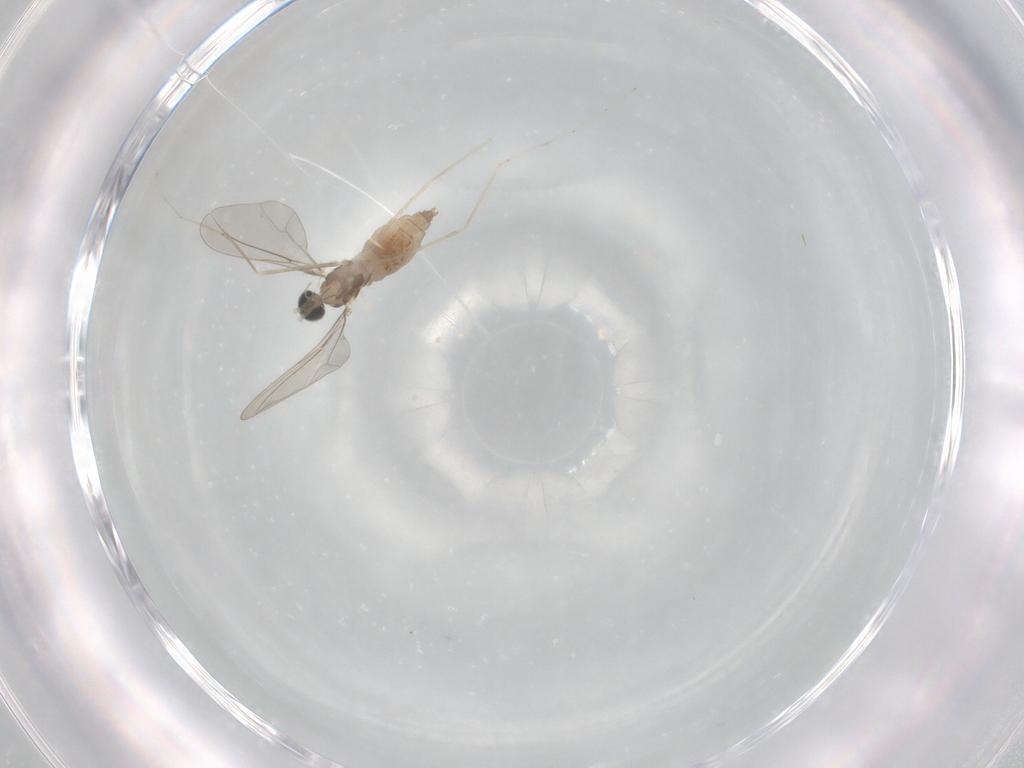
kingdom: Animalia
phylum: Arthropoda
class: Insecta
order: Diptera
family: Cecidomyiidae
